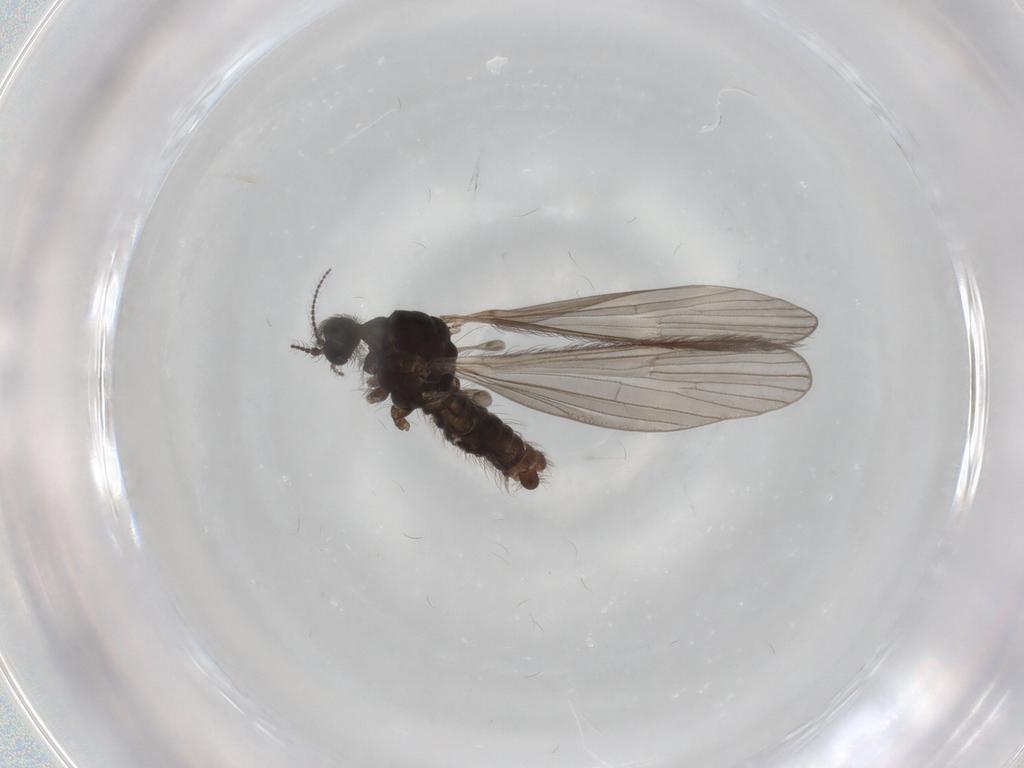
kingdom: Animalia
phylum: Arthropoda
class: Insecta
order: Diptera
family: Limoniidae
